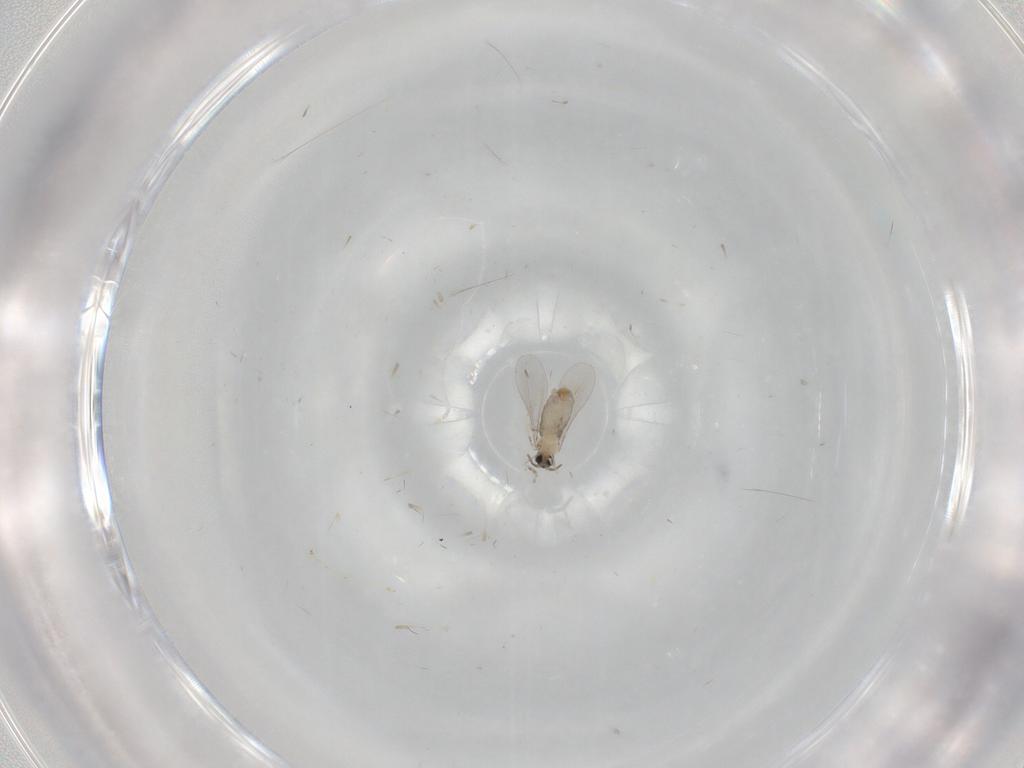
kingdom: Animalia
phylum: Arthropoda
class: Insecta
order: Diptera
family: Cecidomyiidae
